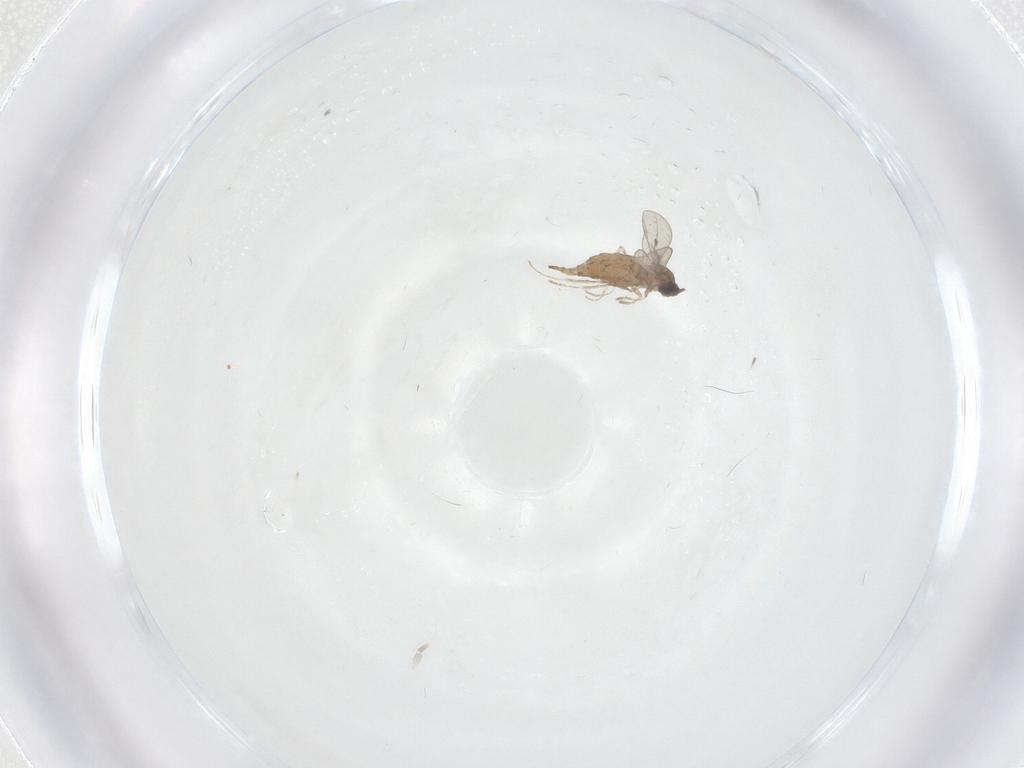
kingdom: Animalia
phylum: Arthropoda
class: Insecta
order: Diptera
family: Cecidomyiidae
